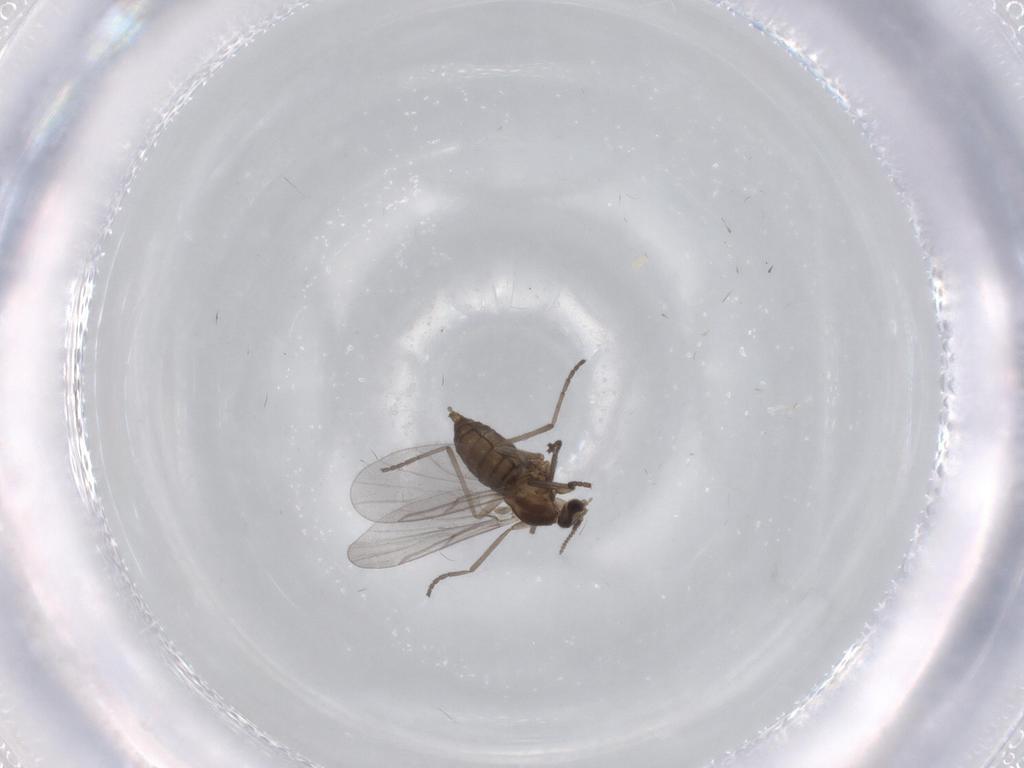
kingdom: Animalia
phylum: Arthropoda
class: Insecta
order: Diptera
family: Cecidomyiidae
